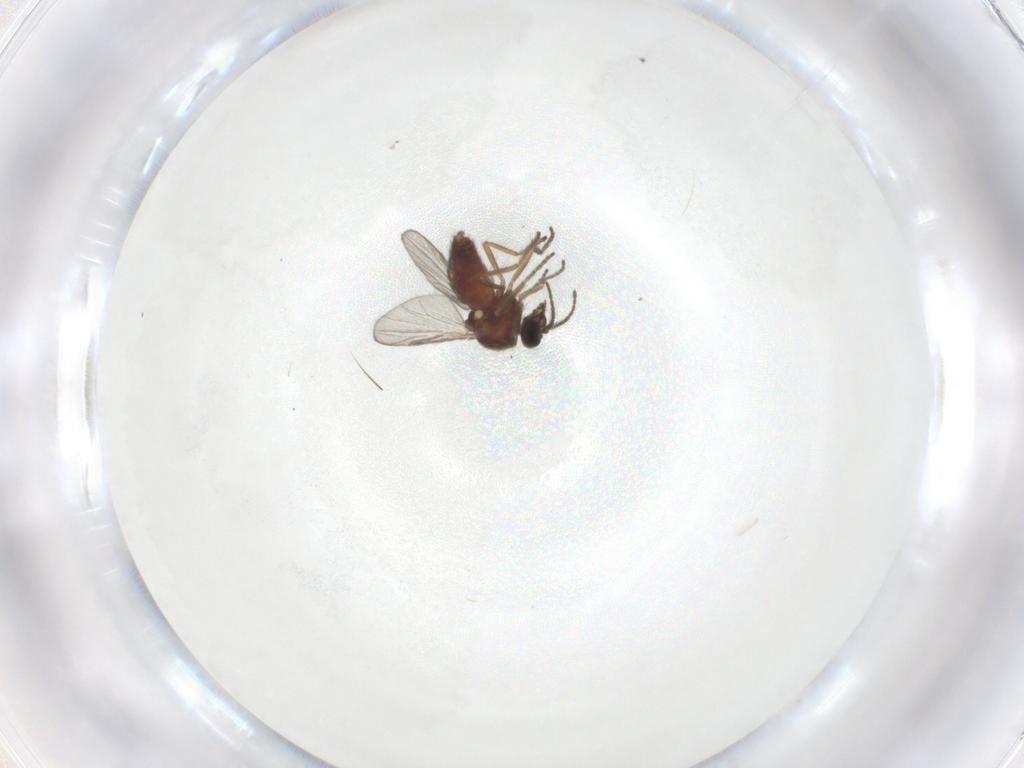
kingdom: Animalia
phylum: Arthropoda
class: Insecta
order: Diptera
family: Ceratopogonidae
